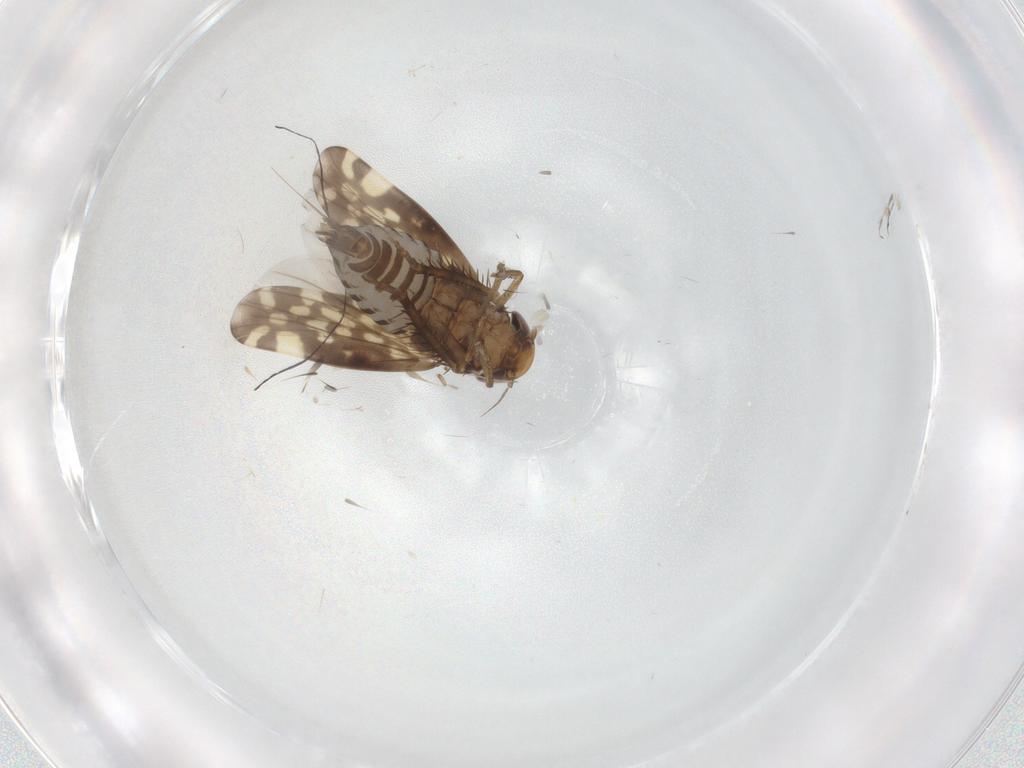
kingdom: Animalia
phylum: Arthropoda
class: Insecta
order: Hemiptera
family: Cicadellidae
